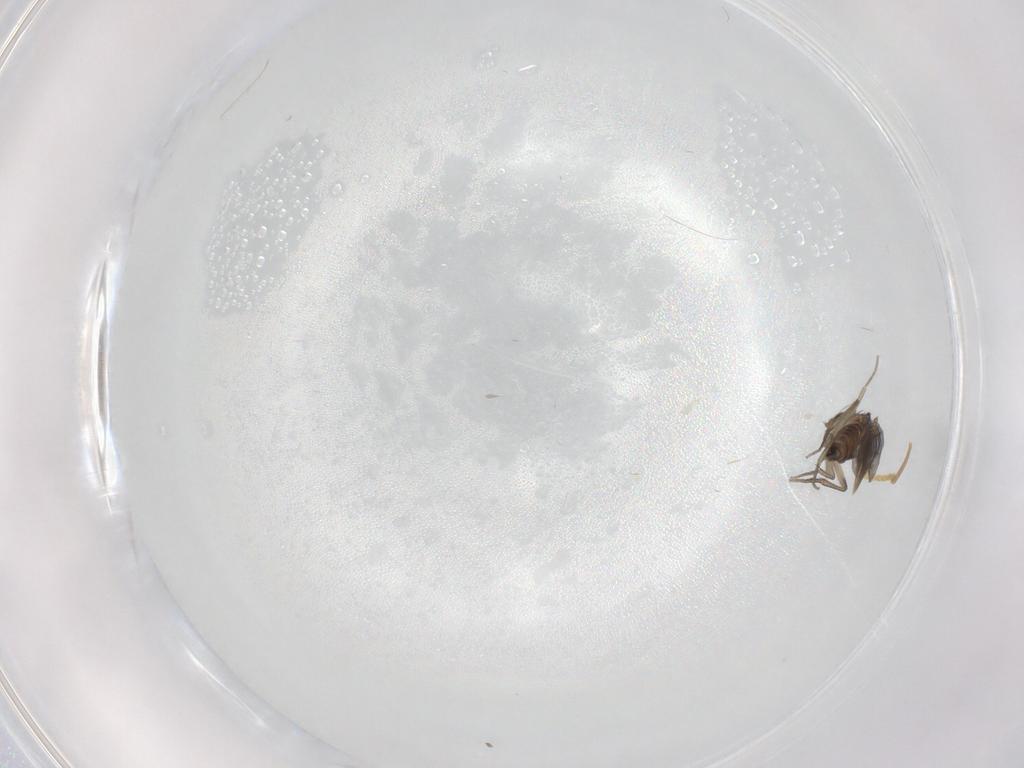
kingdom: Animalia
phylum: Arthropoda
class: Insecta
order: Diptera
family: Phoridae
